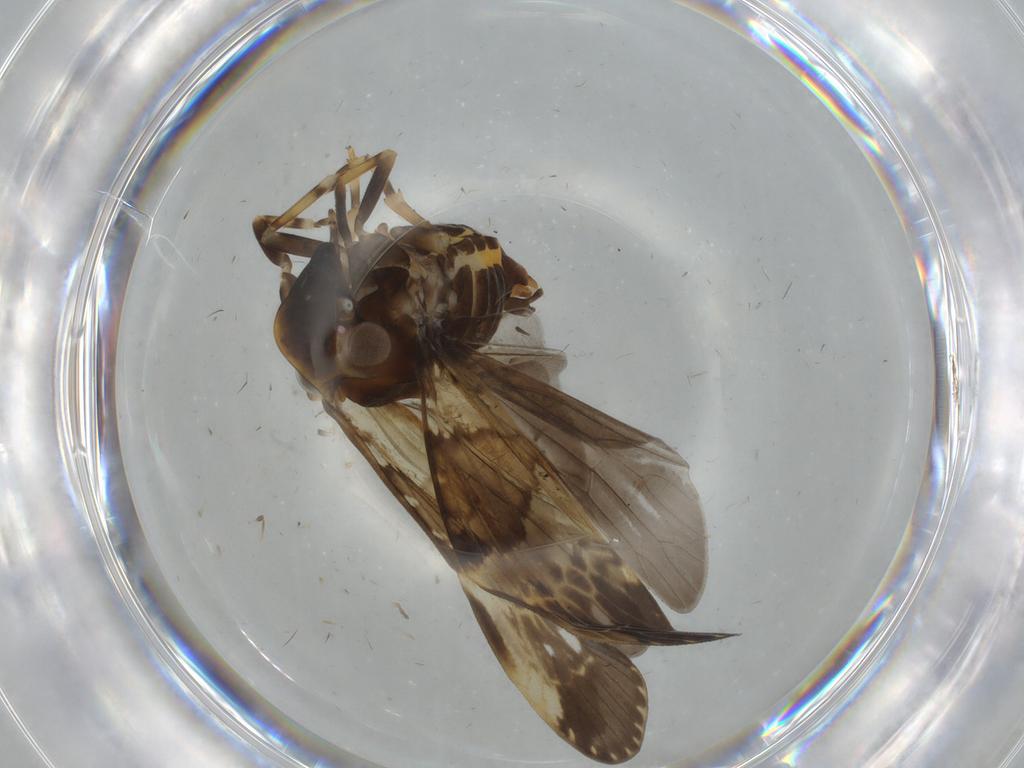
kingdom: Animalia
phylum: Arthropoda
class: Insecta
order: Hemiptera
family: Cixiidae
